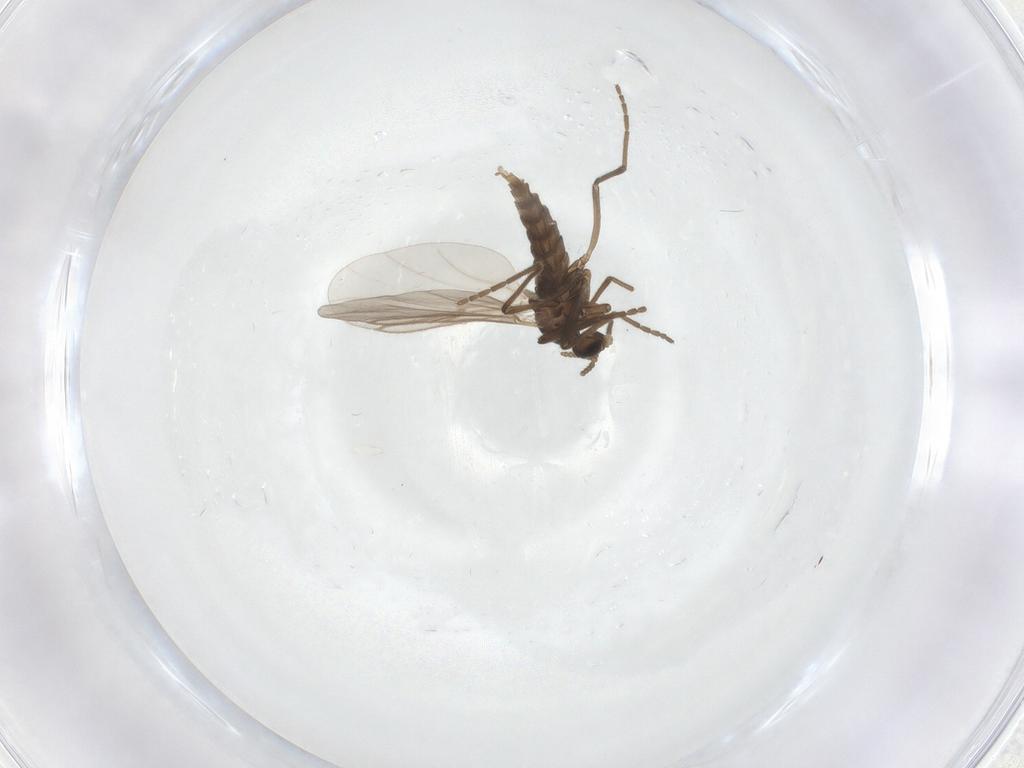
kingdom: Animalia
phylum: Arthropoda
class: Insecta
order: Diptera
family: Cecidomyiidae
